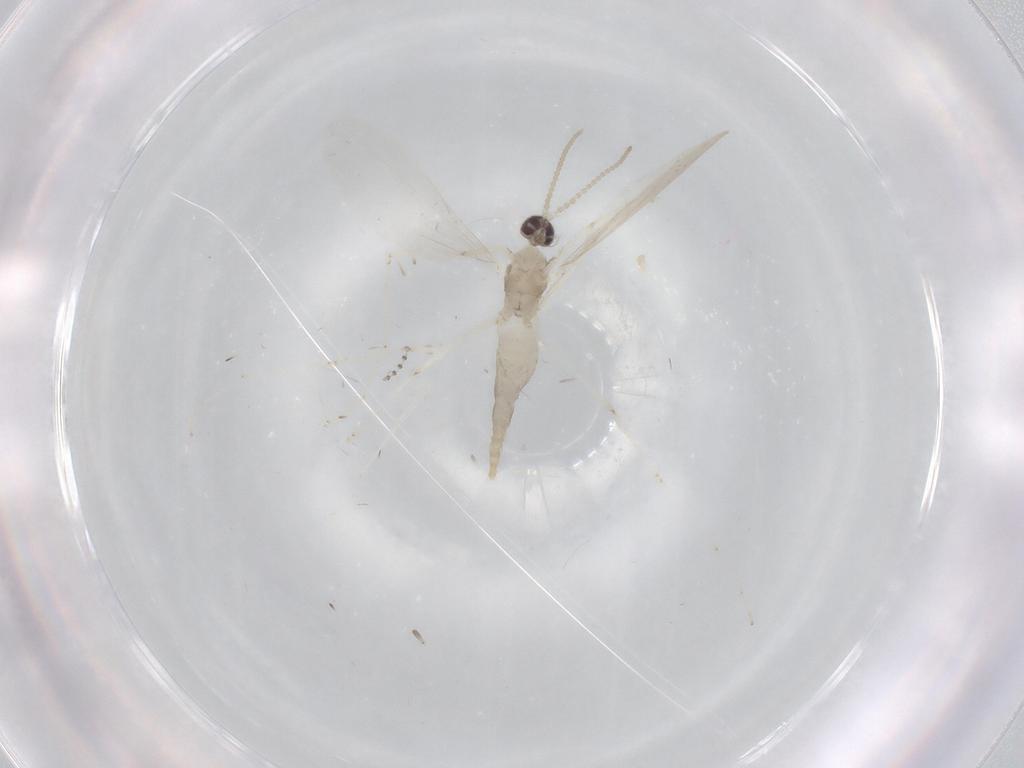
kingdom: Animalia
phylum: Arthropoda
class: Insecta
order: Diptera
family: Cecidomyiidae
